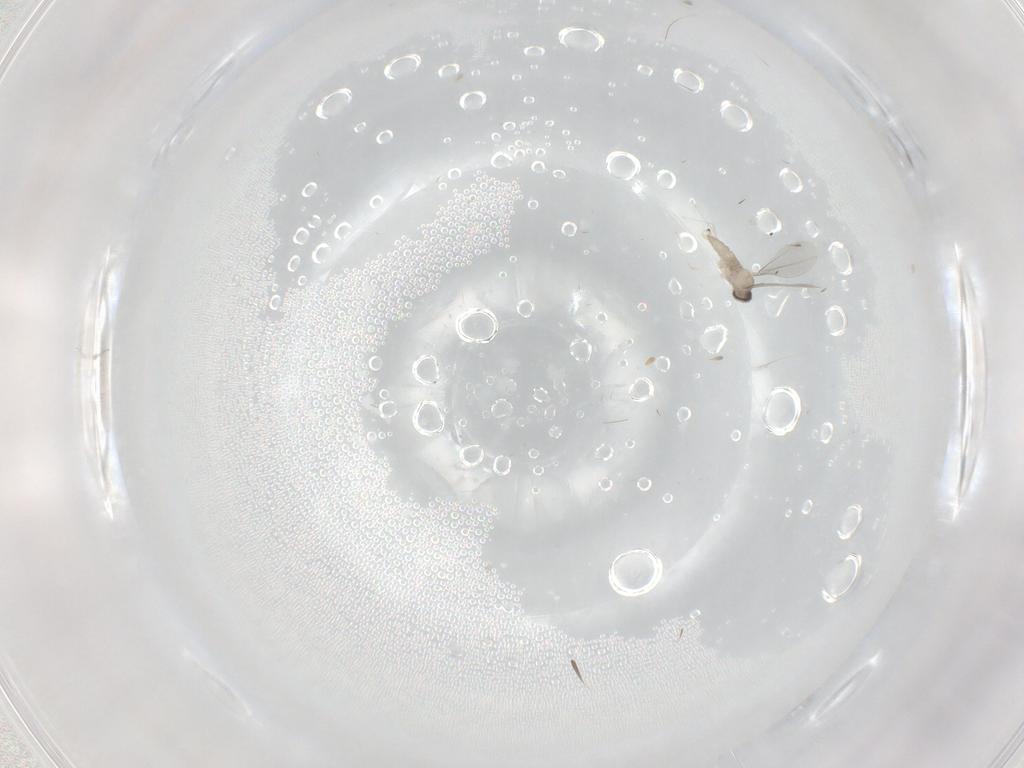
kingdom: Animalia
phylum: Arthropoda
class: Insecta
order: Diptera
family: Cecidomyiidae
